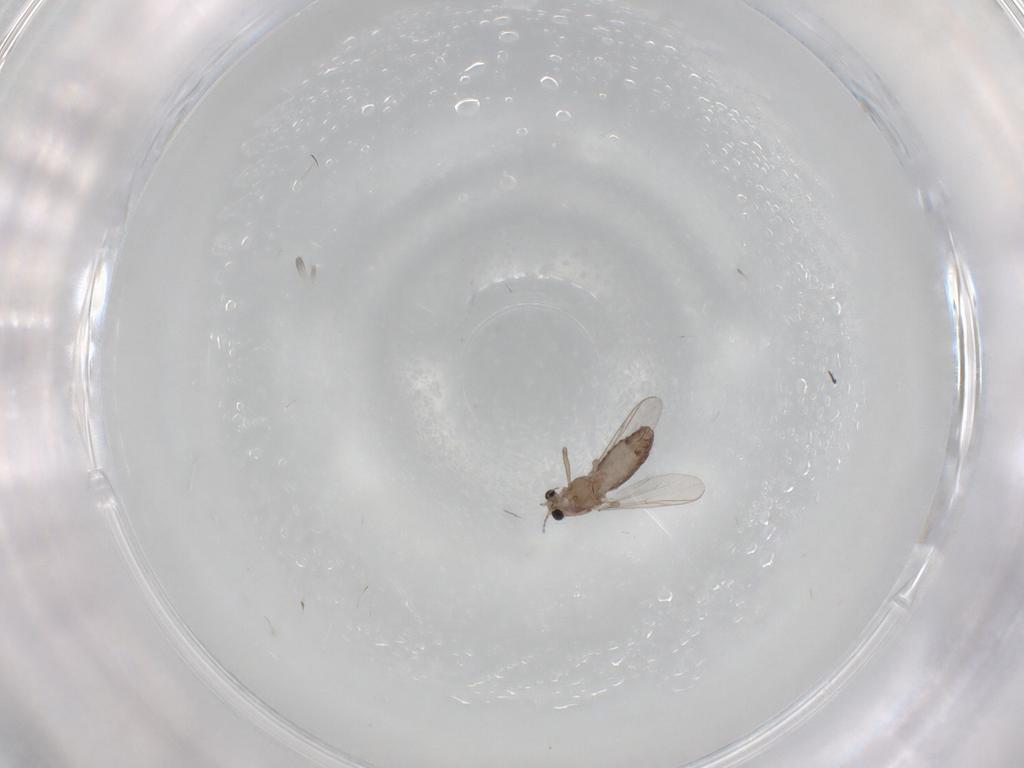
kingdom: Animalia
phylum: Arthropoda
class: Insecta
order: Diptera
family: Chironomidae
